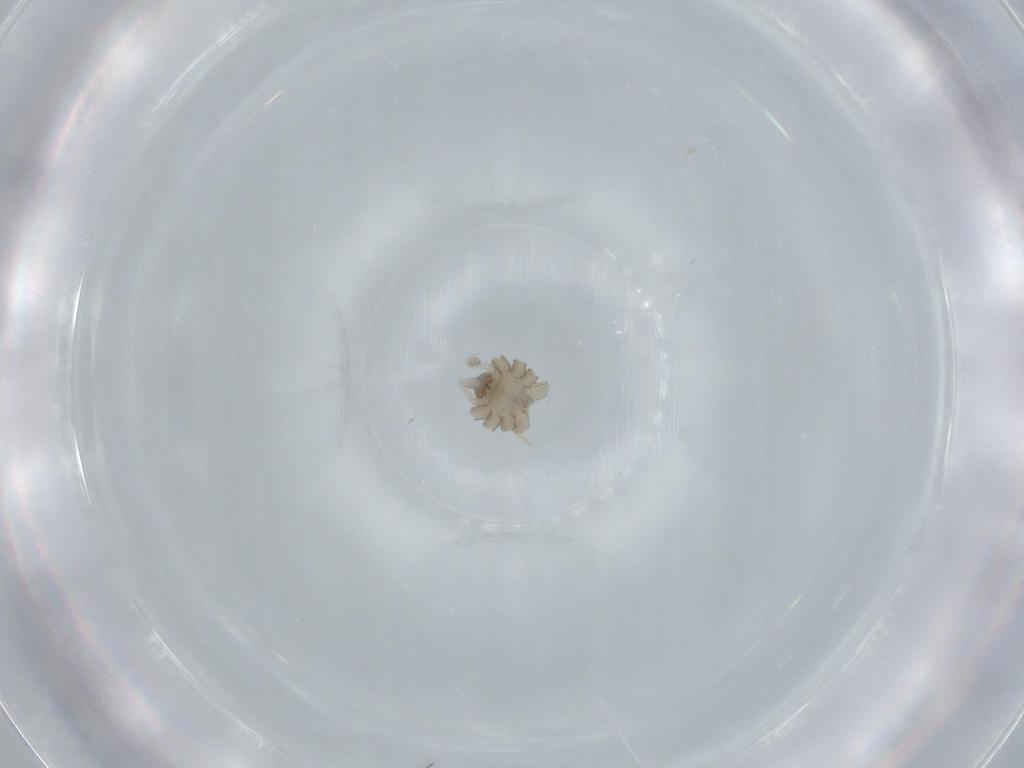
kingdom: Animalia
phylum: Arthropoda
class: Arachnida
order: Araneae
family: Pholcidae
